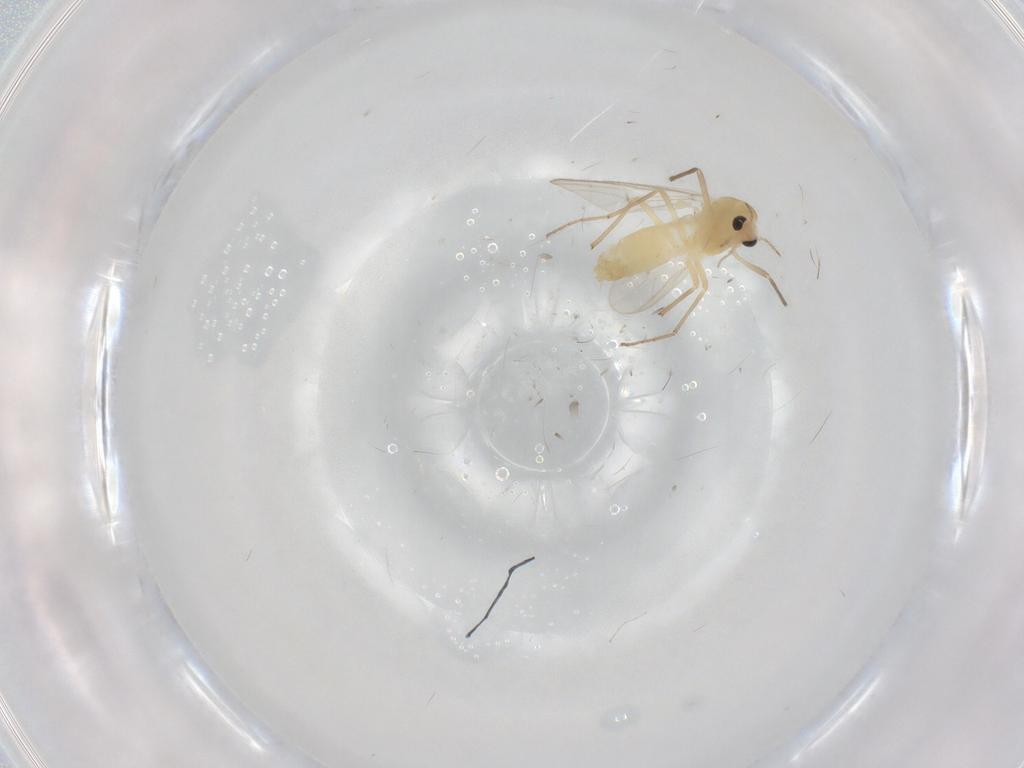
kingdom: Animalia
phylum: Arthropoda
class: Insecta
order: Diptera
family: Chironomidae
